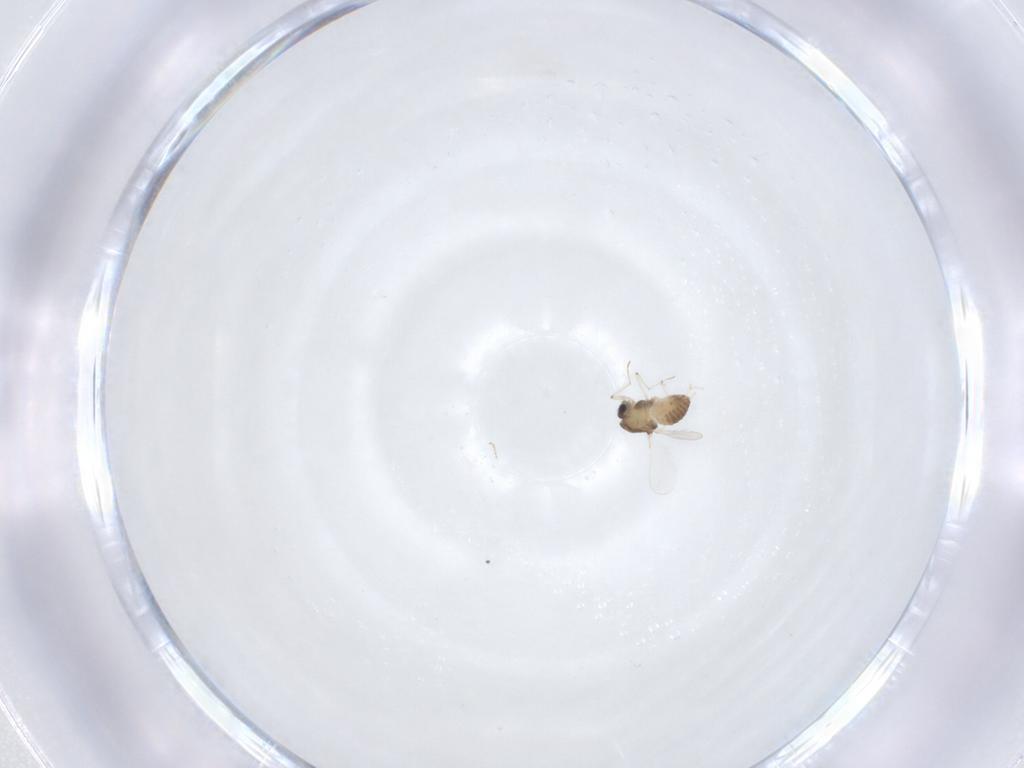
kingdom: Animalia
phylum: Arthropoda
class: Insecta
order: Diptera
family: Chironomidae
